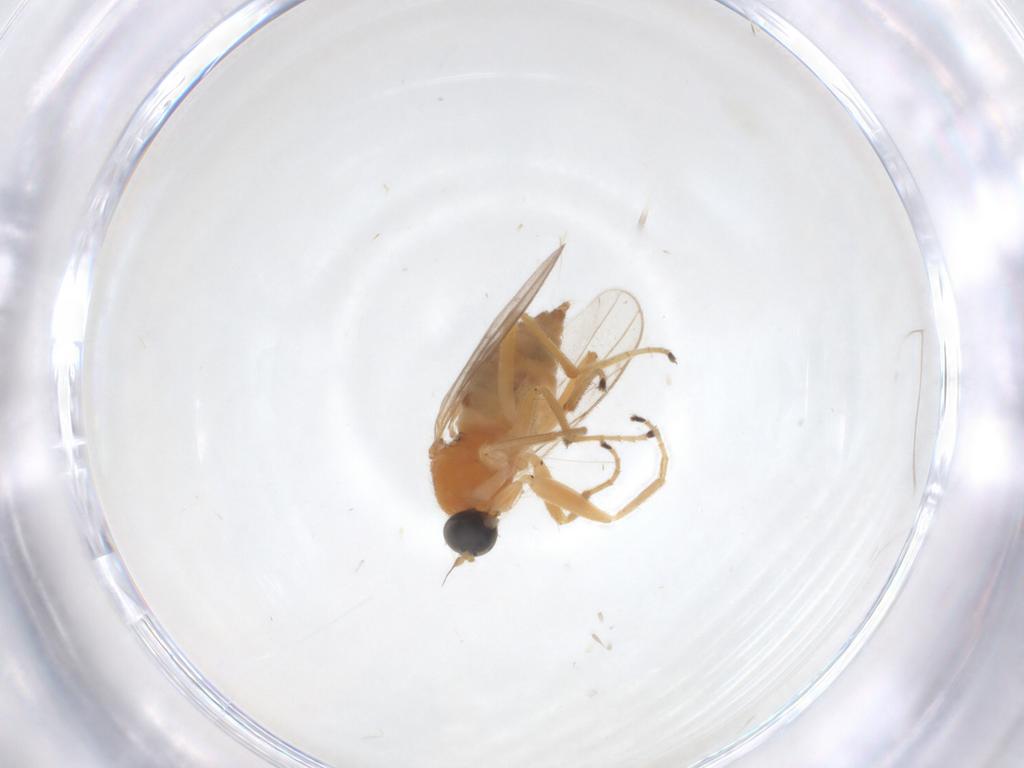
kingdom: Animalia
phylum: Arthropoda
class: Insecta
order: Diptera
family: Hybotidae
